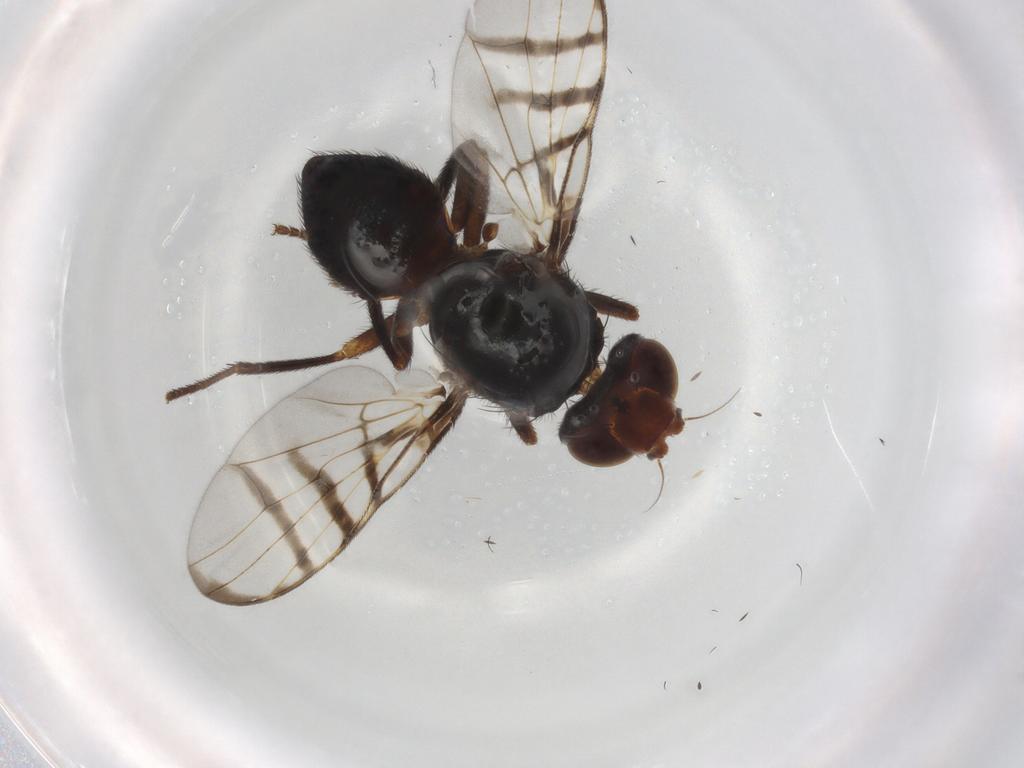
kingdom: Animalia
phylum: Arthropoda
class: Insecta
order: Diptera
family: Platystomatidae
